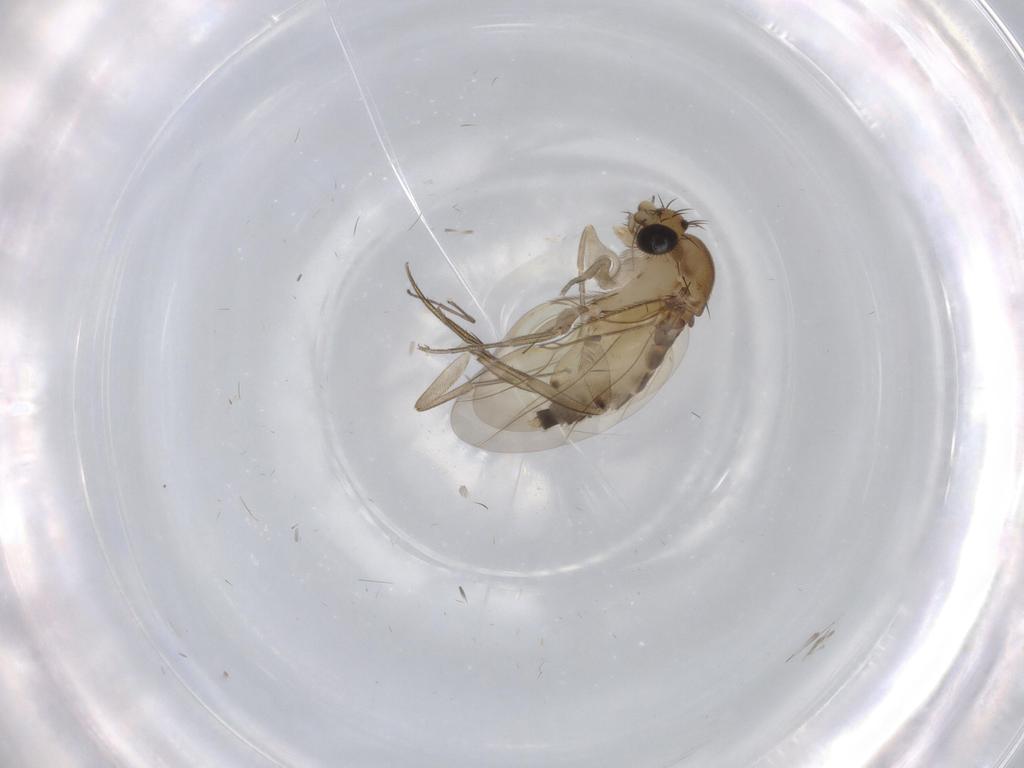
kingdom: Animalia
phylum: Arthropoda
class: Insecta
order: Diptera
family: Phoridae
